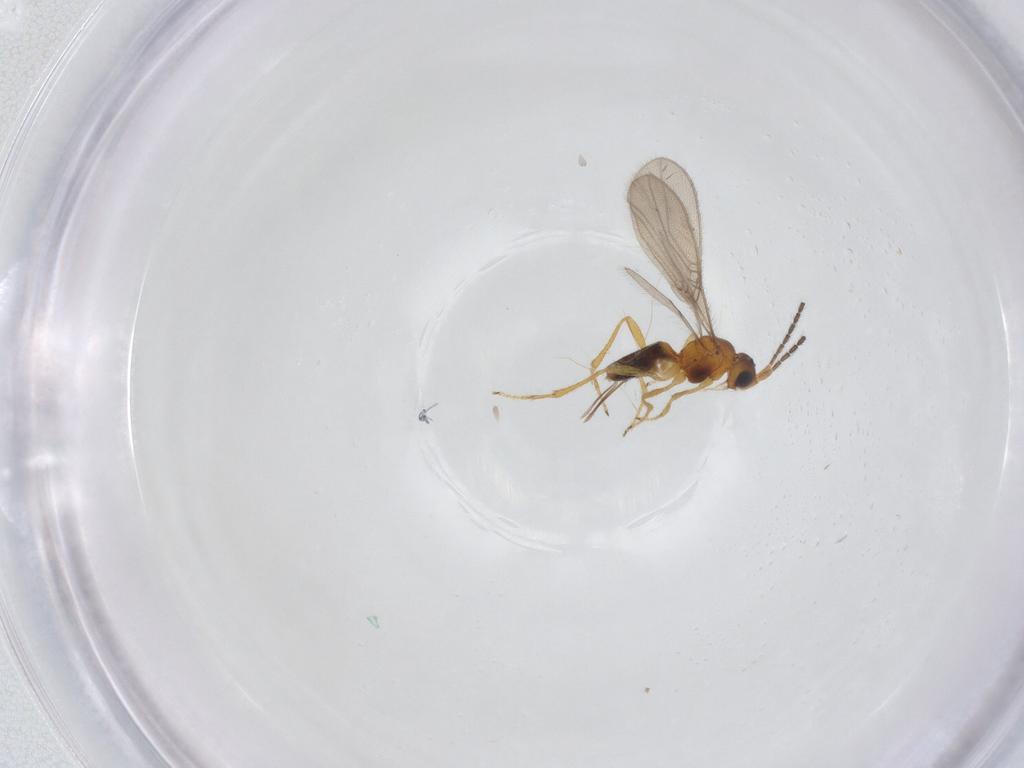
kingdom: Animalia
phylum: Arthropoda
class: Insecta
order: Hymenoptera
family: Braconidae
